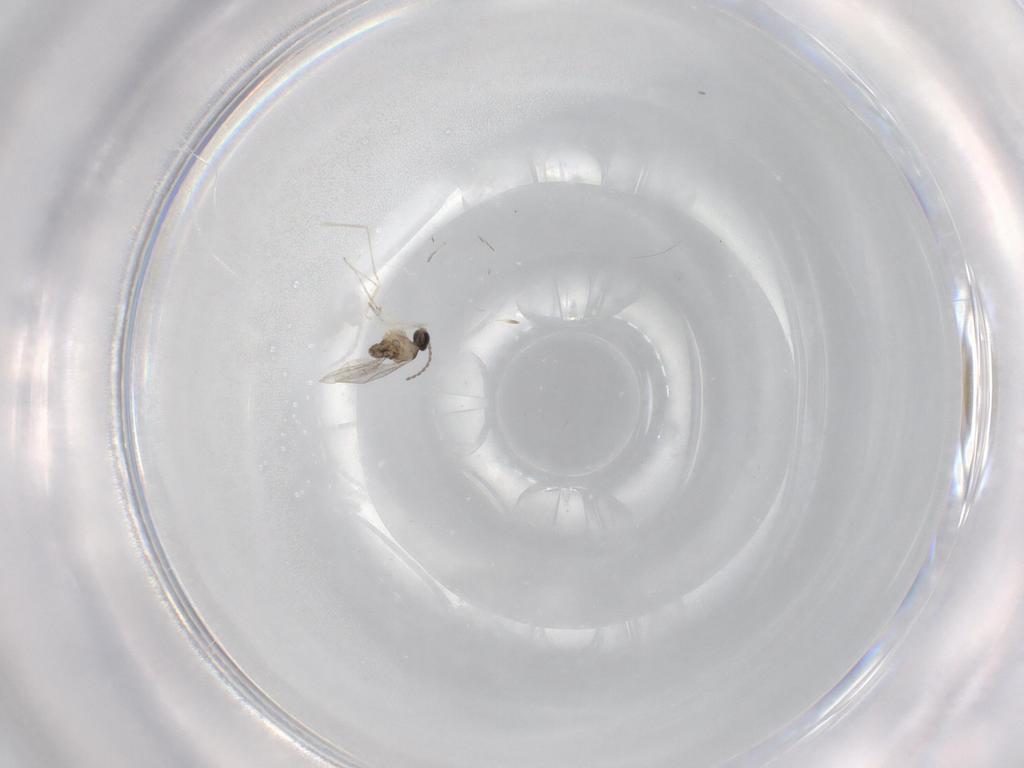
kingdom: Animalia
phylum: Arthropoda
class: Insecta
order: Diptera
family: Cecidomyiidae
